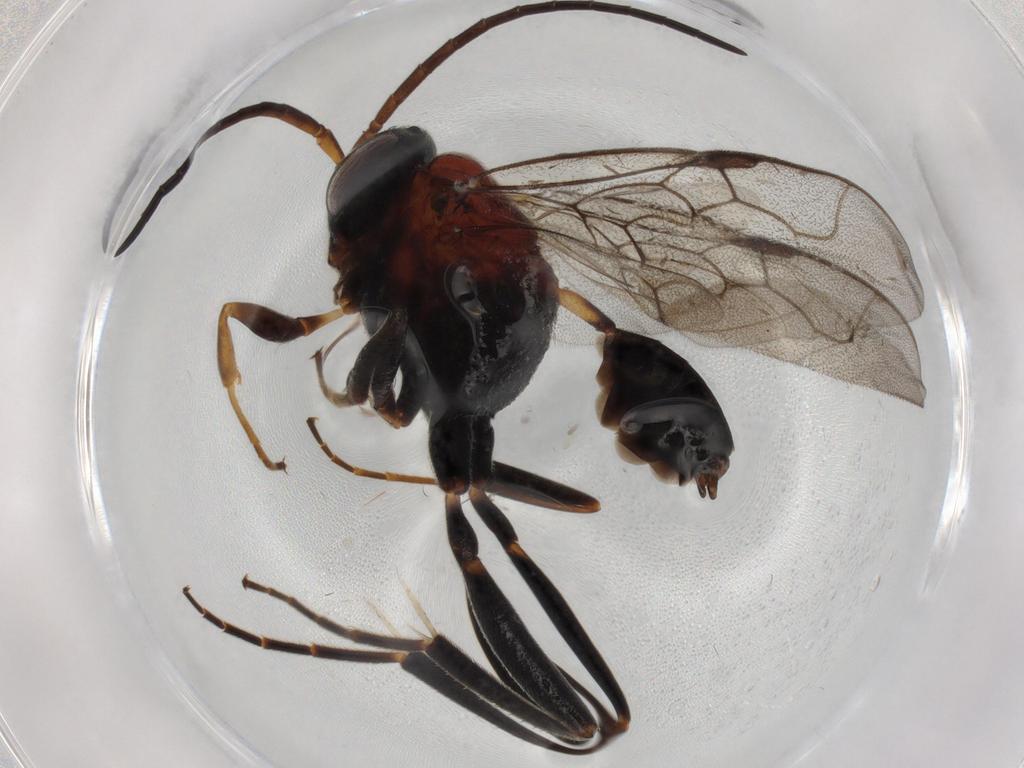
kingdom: Animalia
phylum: Arthropoda
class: Insecta
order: Hymenoptera
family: Evaniidae
